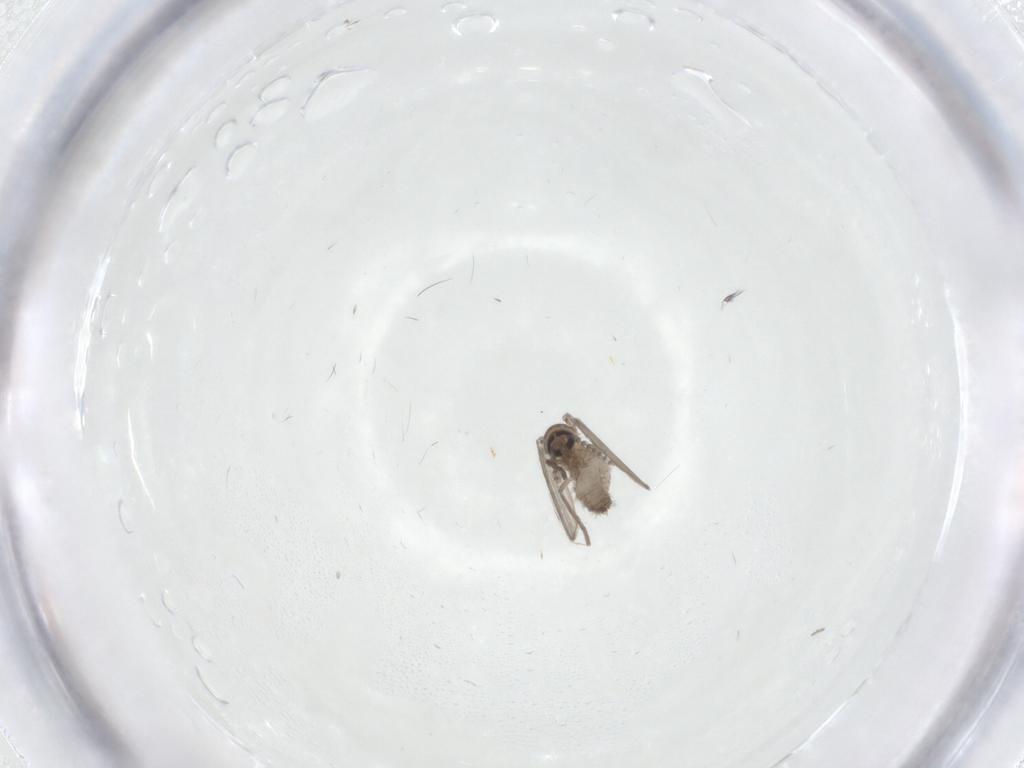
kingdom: Animalia
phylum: Arthropoda
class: Insecta
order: Diptera
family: Psychodidae
